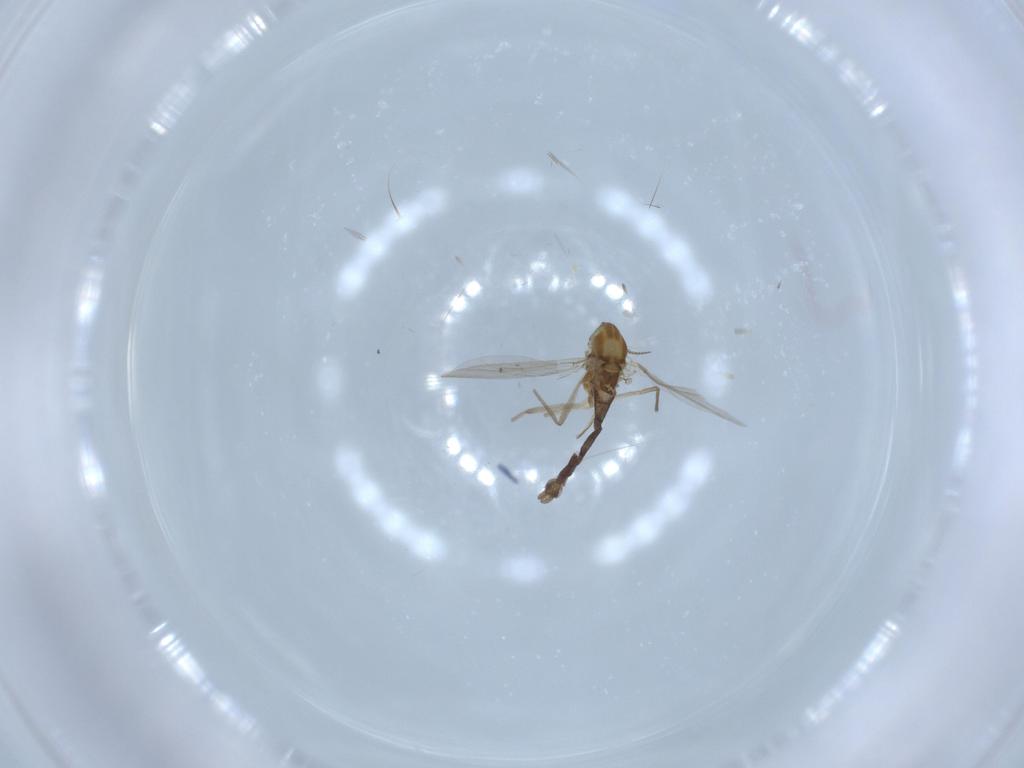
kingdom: Animalia
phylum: Arthropoda
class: Insecta
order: Diptera
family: Chironomidae
